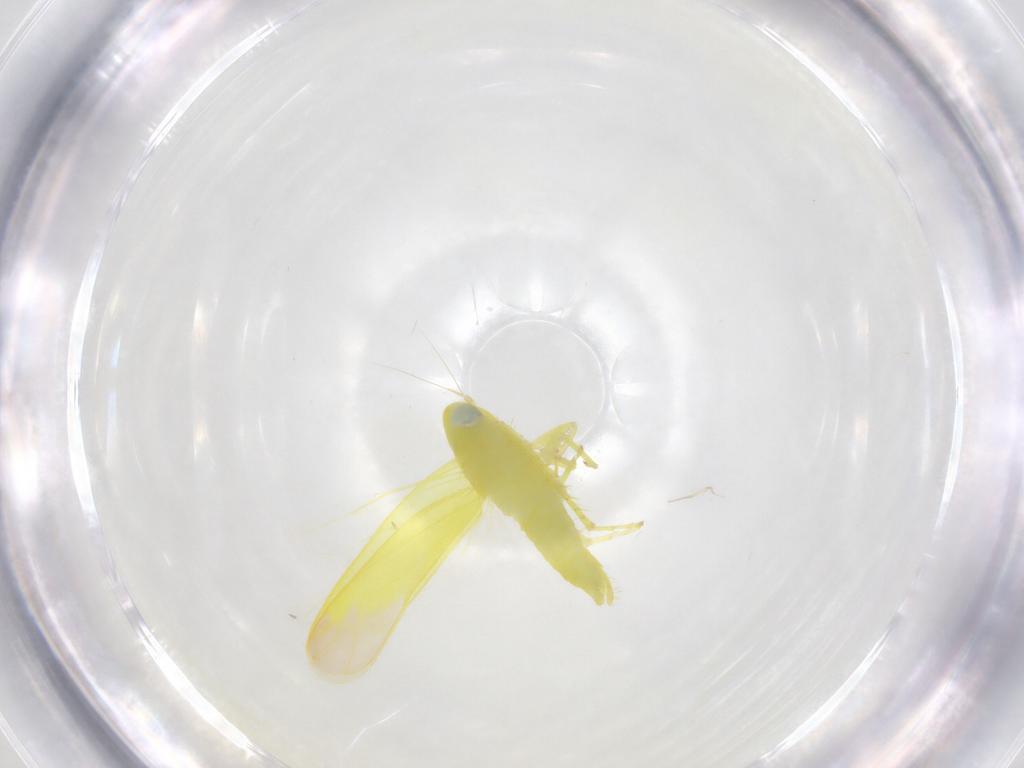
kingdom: Animalia
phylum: Arthropoda
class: Insecta
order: Hemiptera
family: Cicadellidae
